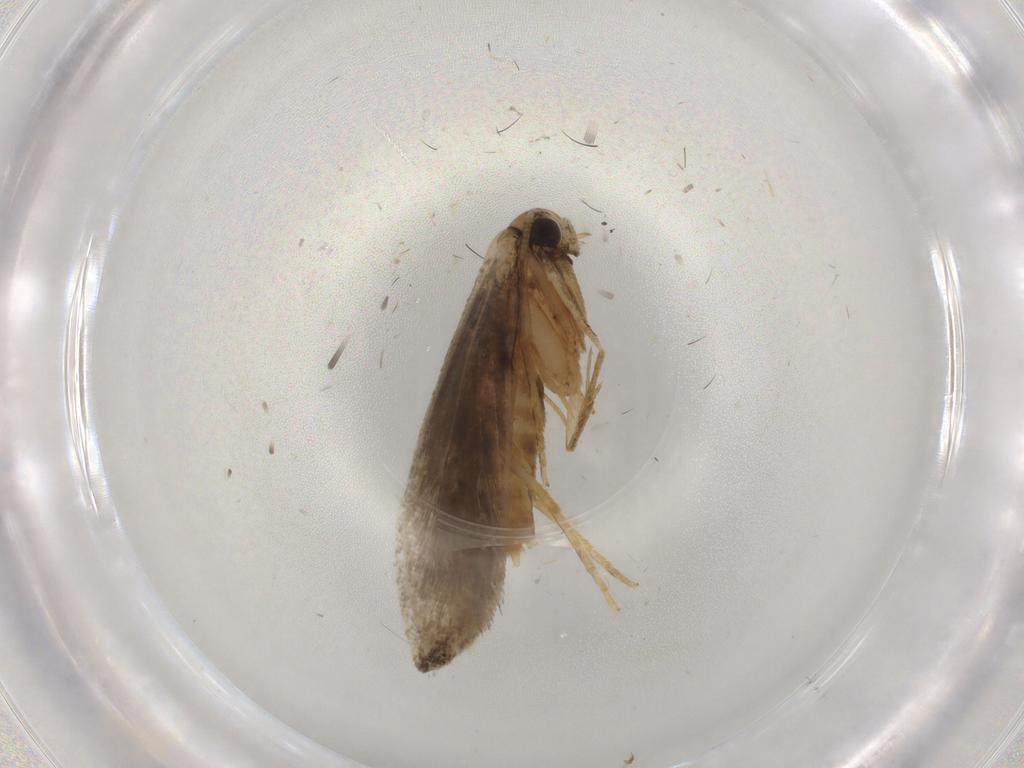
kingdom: Animalia
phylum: Arthropoda
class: Insecta
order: Lepidoptera
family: Tineidae
